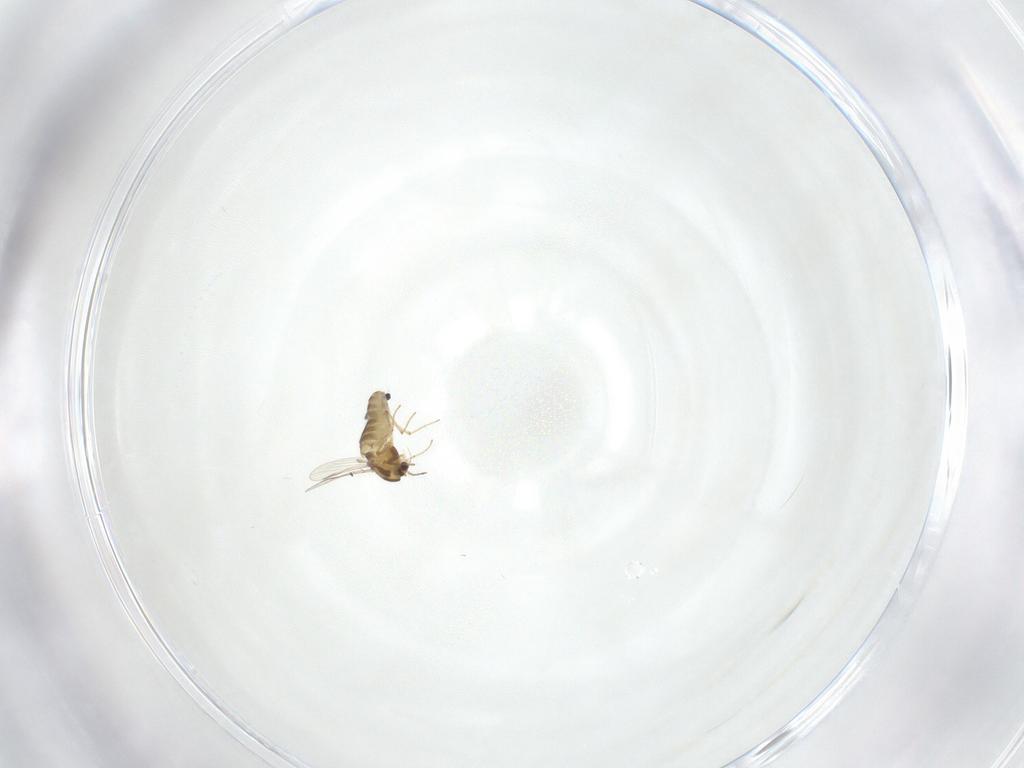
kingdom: Animalia
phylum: Arthropoda
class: Insecta
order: Diptera
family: Chironomidae
